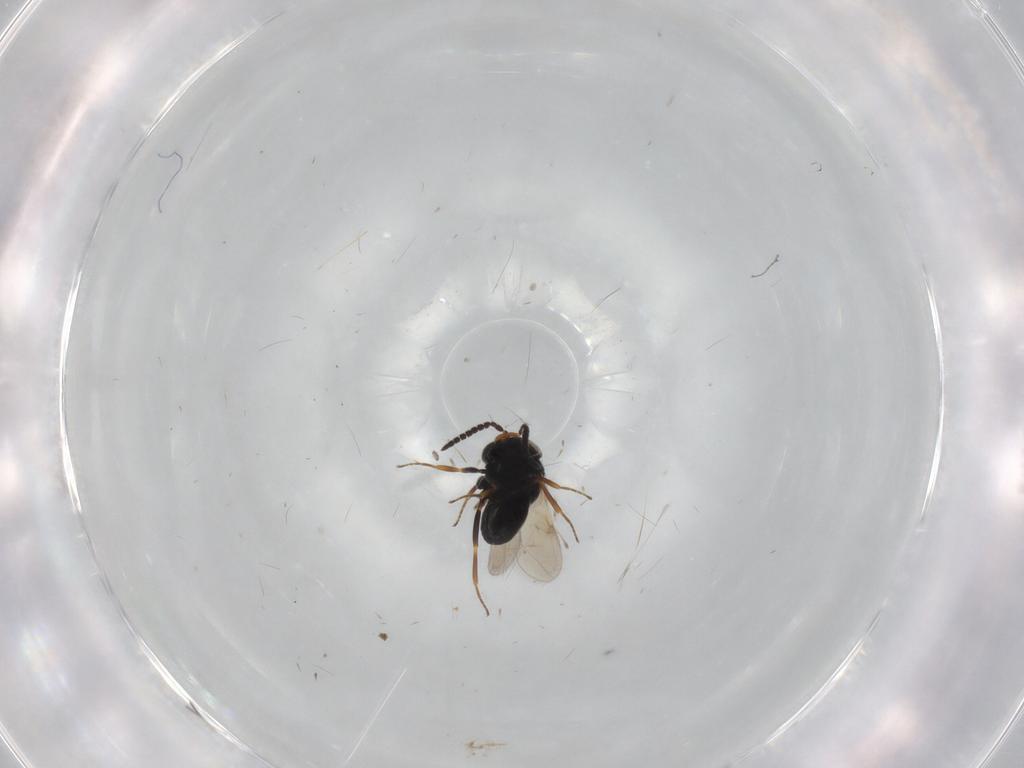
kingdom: Animalia
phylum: Arthropoda
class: Insecta
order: Hymenoptera
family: Scelionidae
